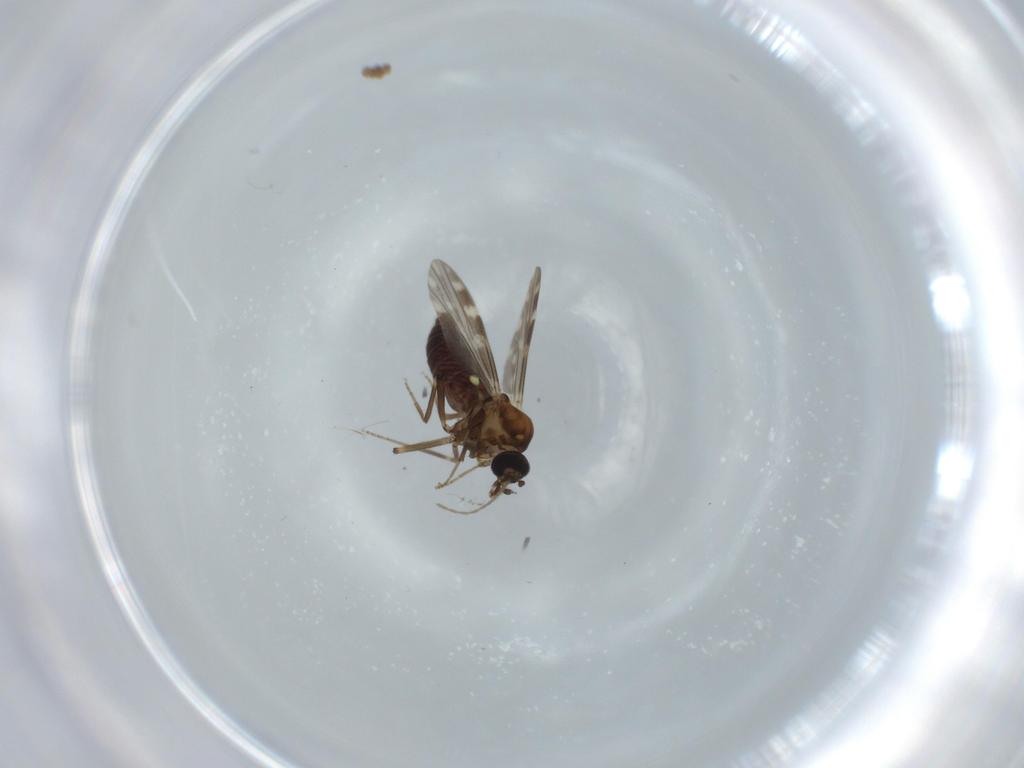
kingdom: Animalia
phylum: Arthropoda
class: Insecta
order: Diptera
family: Ceratopogonidae
